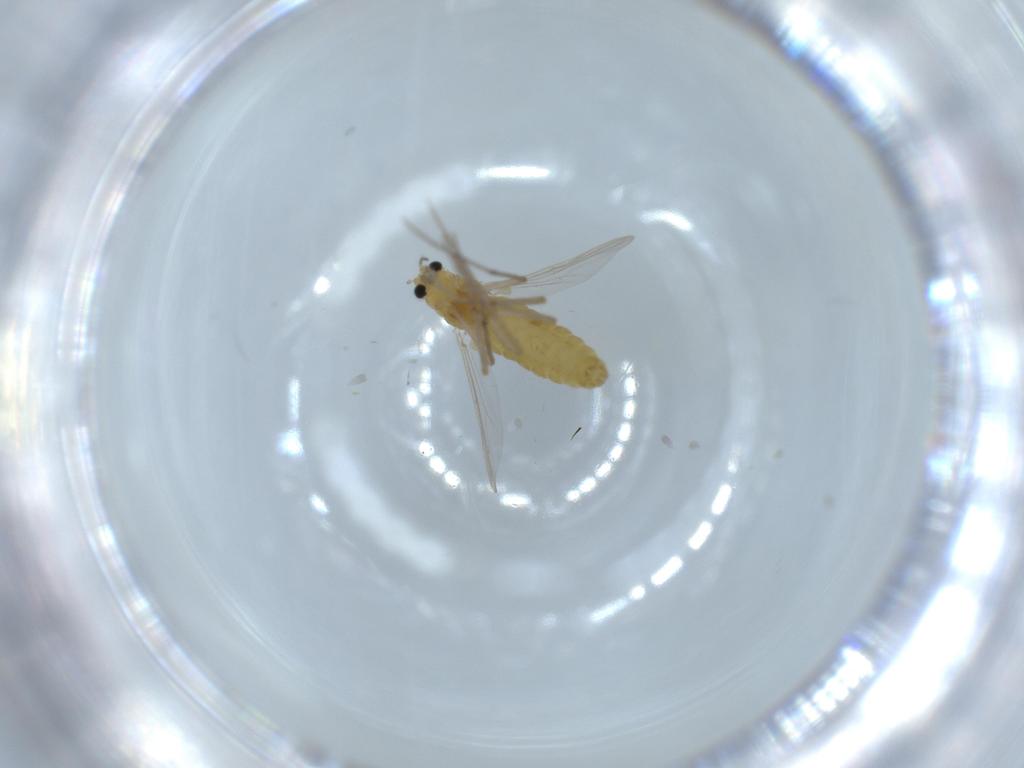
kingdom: Animalia
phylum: Arthropoda
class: Insecta
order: Diptera
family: Chironomidae
